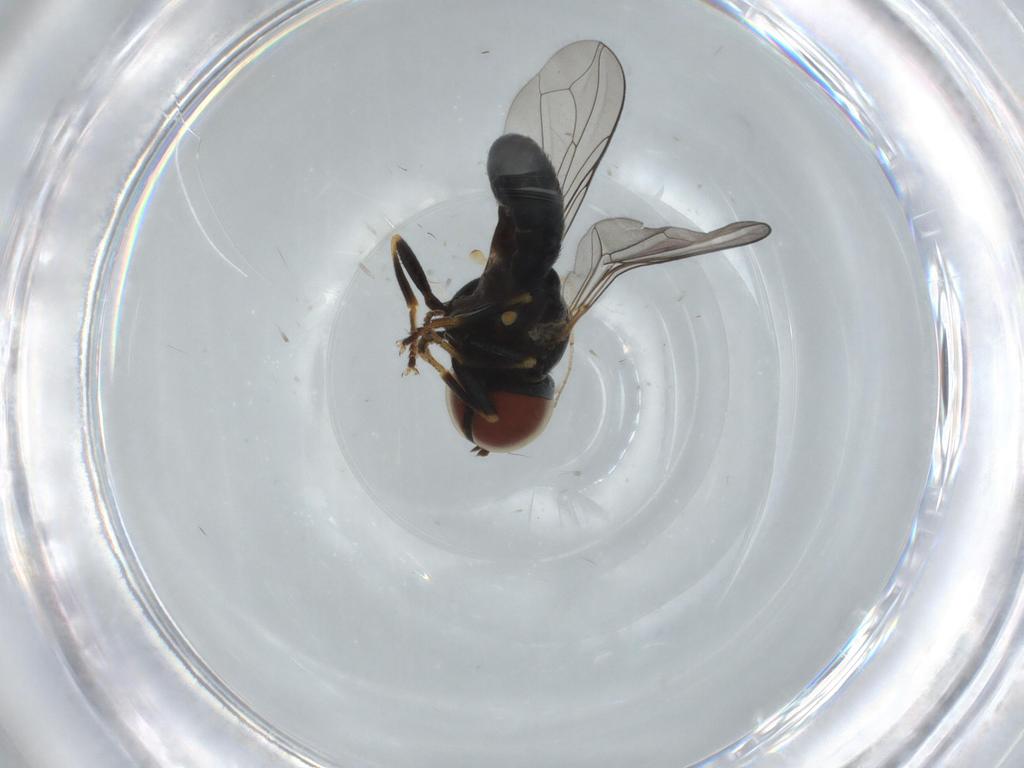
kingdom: Animalia
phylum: Arthropoda
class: Insecta
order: Diptera
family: Pipunculidae
